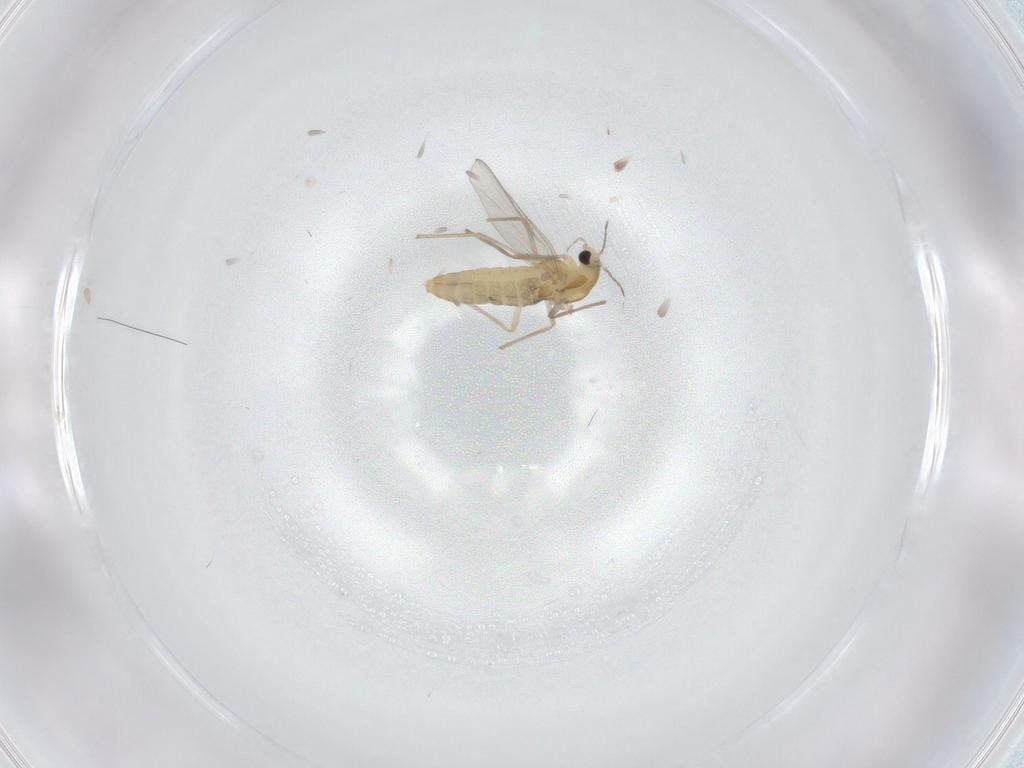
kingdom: Animalia
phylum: Arthropoda
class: Insecta
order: Diptera
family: Chironomidae
